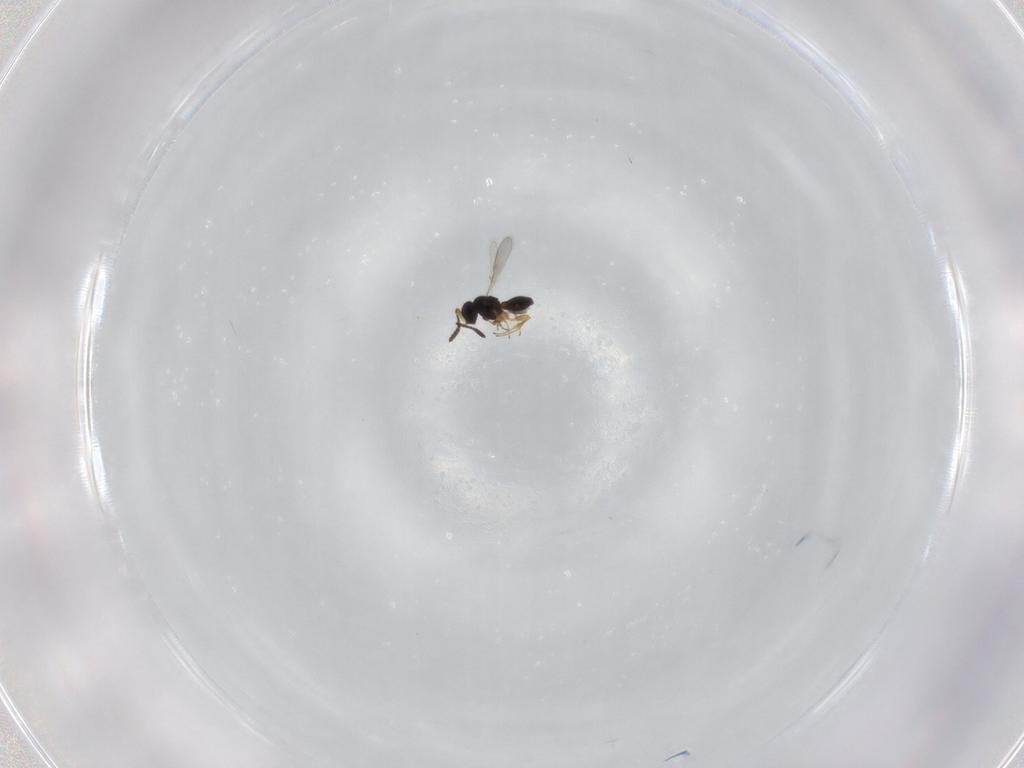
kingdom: Animalia
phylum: Arthropoda
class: Insecta
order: Hymenoptera
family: Scelionidae
